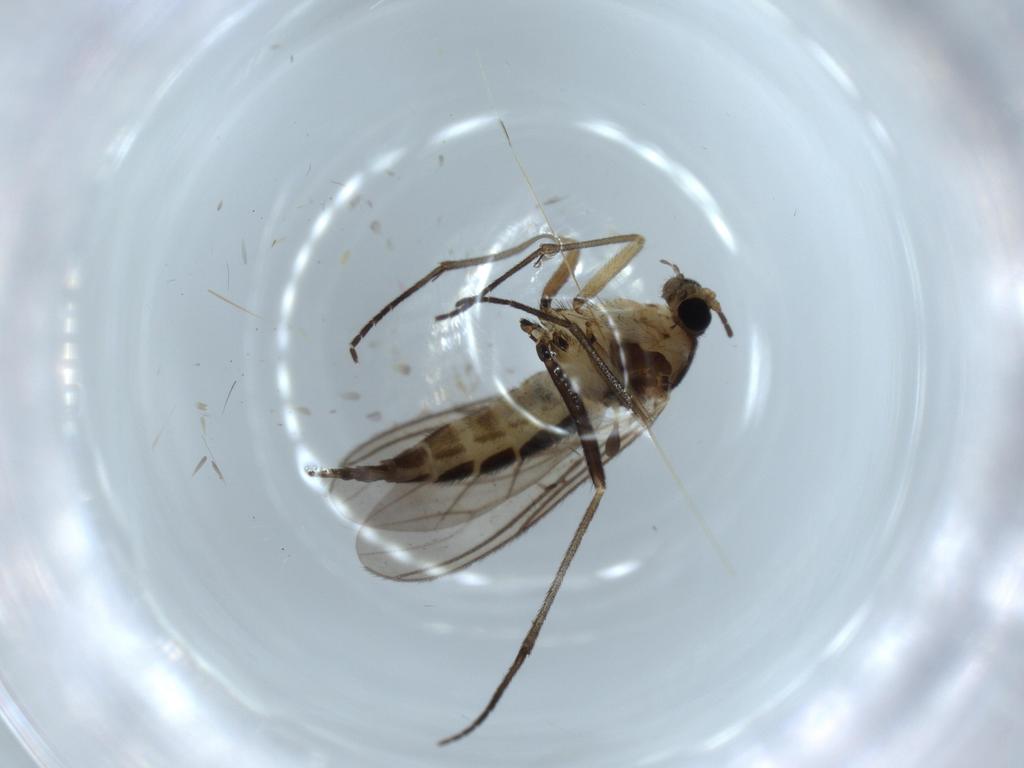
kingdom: Animalia
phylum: Arthropoda
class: Insecta
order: Diptera
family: Sciaridae
